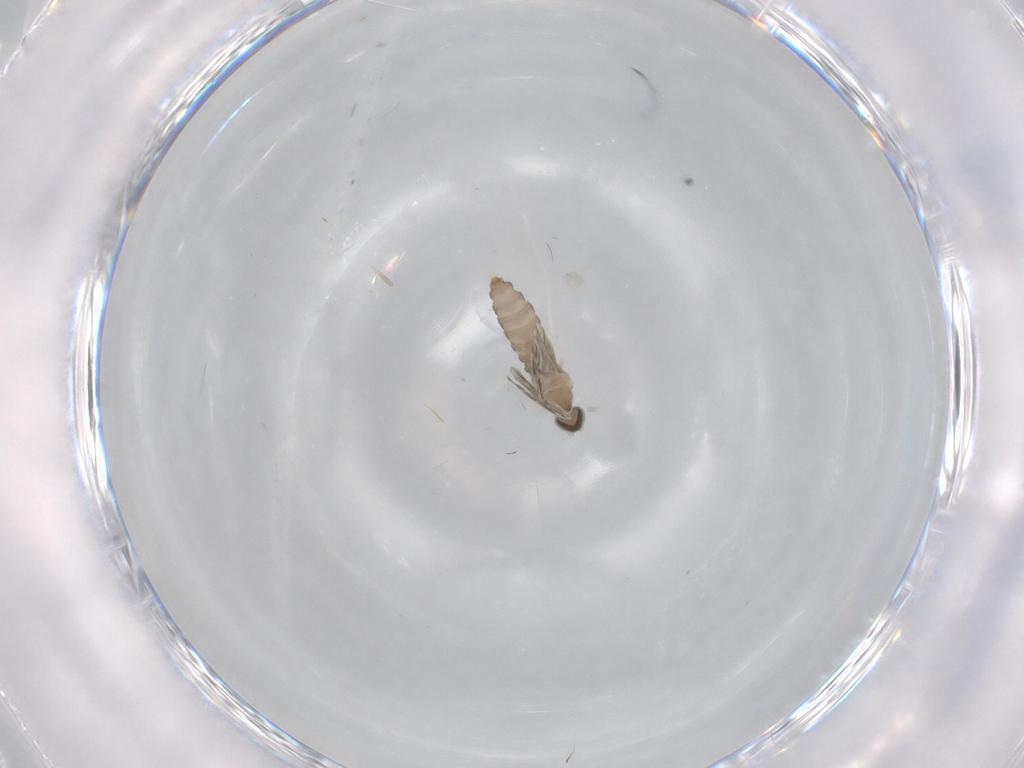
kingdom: Animalia
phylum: Arthropoda
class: Insecta
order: Diptera
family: Cecidomyiidae
